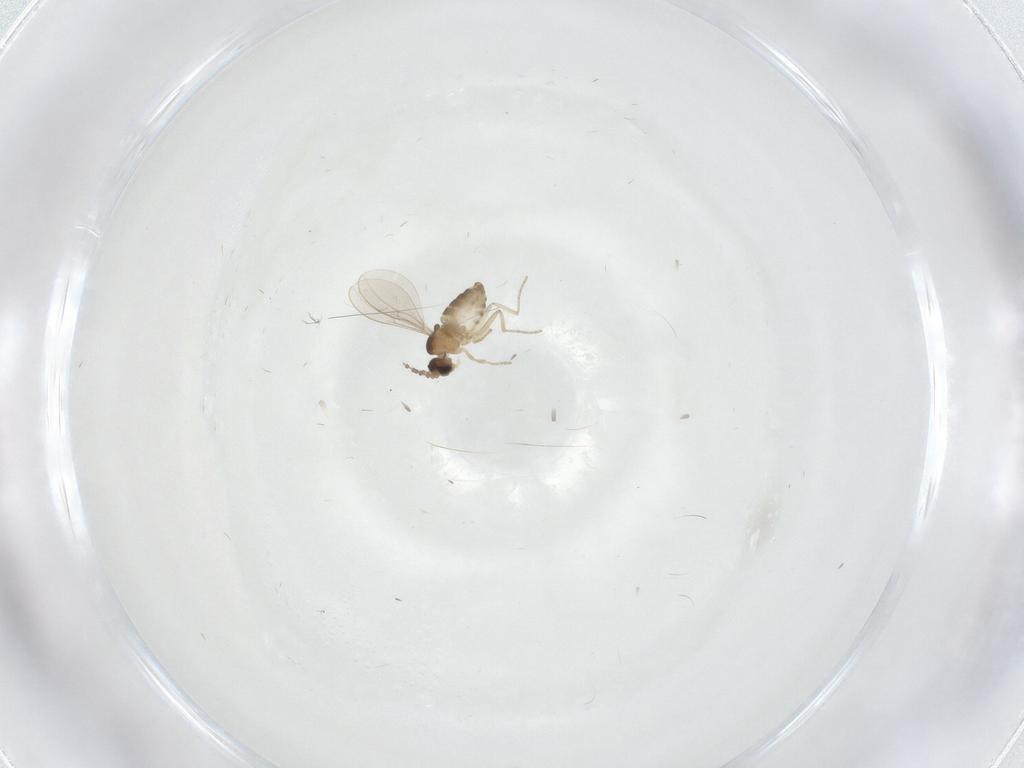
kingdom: Animalia
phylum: Arthropoda
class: Insecta
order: Diptera
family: Cecidomyiidae
